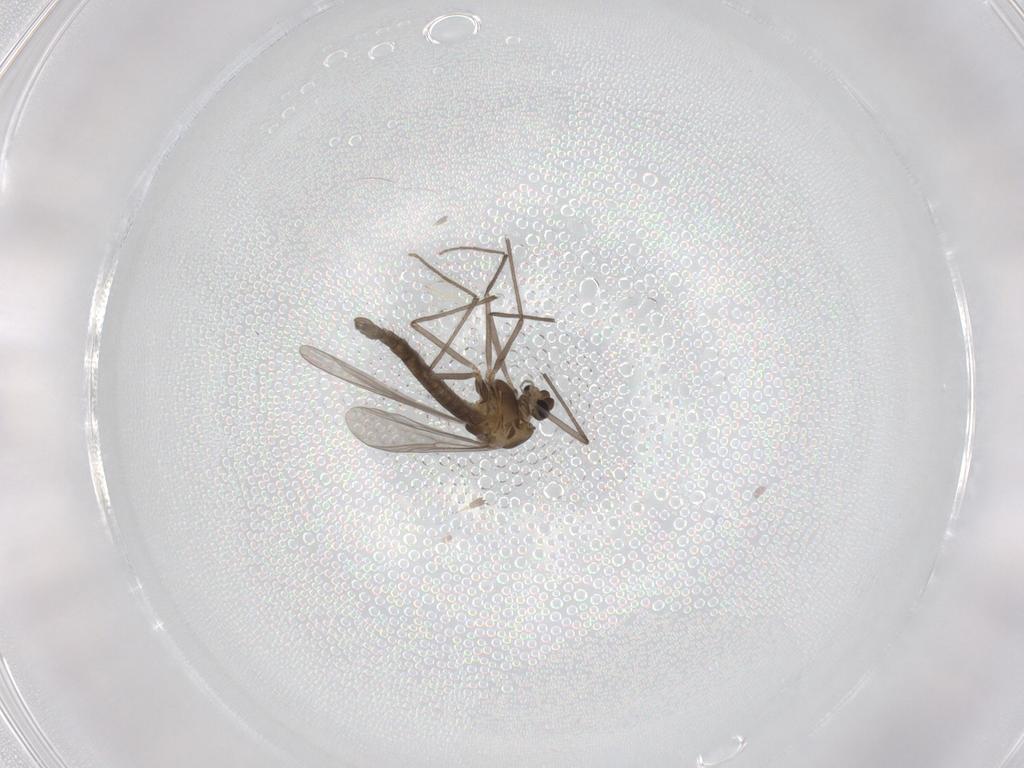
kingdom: Animalia
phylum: Arthropoda
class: Insecta
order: Diptera
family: Chironomidae
